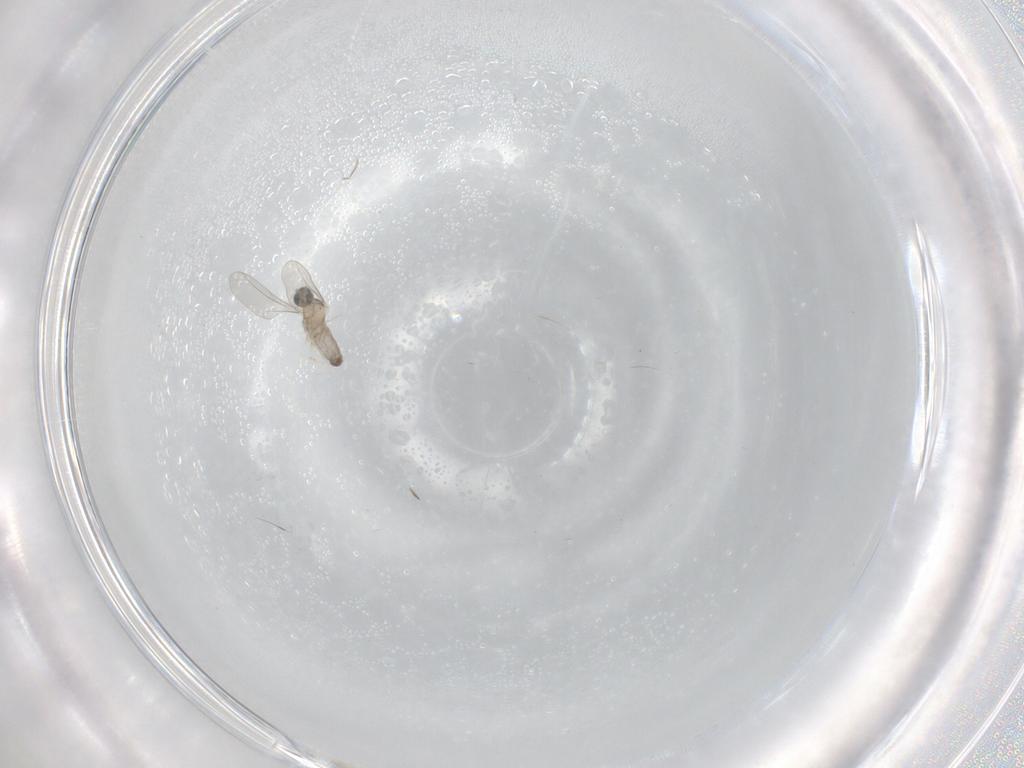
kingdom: Animalia
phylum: Arthropoda
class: Insecta
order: Diptera
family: Cecidomyiidae
